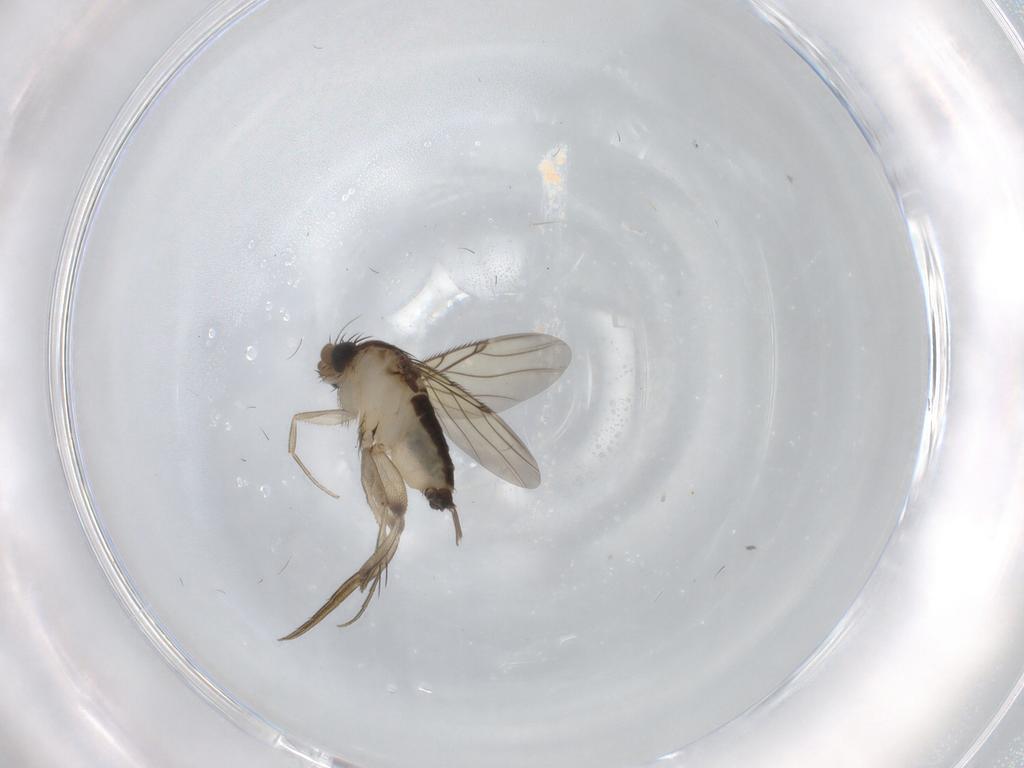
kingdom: Animalia
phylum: Arthropoda
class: Insecta
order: Diptera
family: Phoridae
